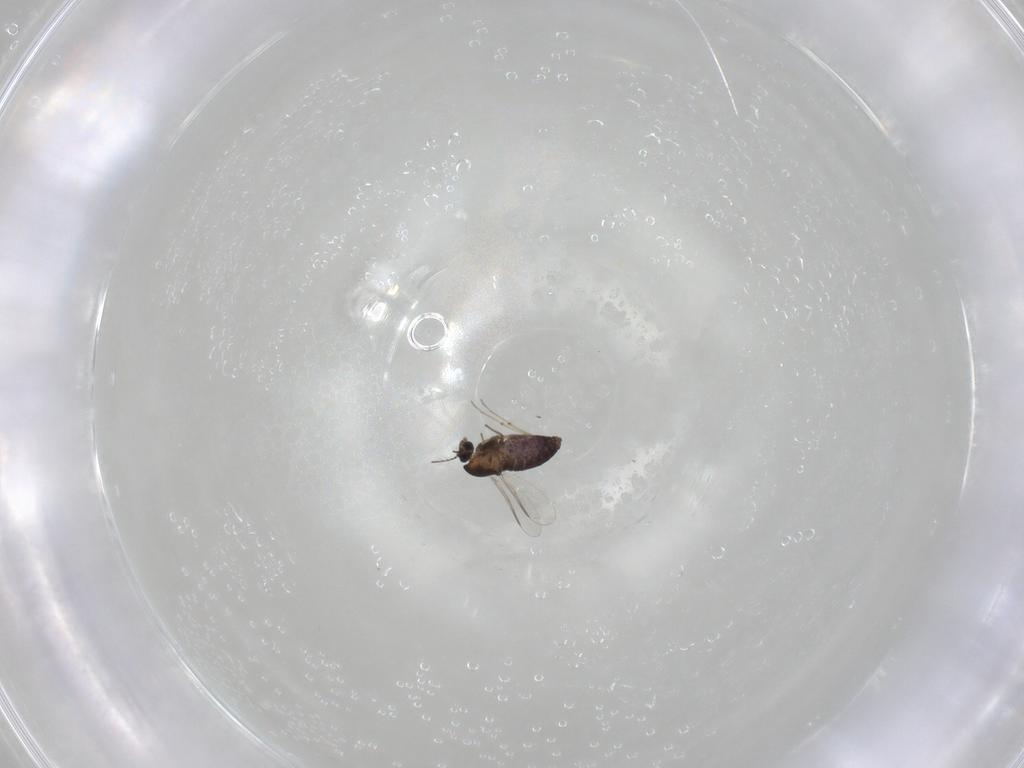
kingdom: Animalia
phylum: Arthropoda
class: Insecta
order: Diptera
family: Chironomidae
